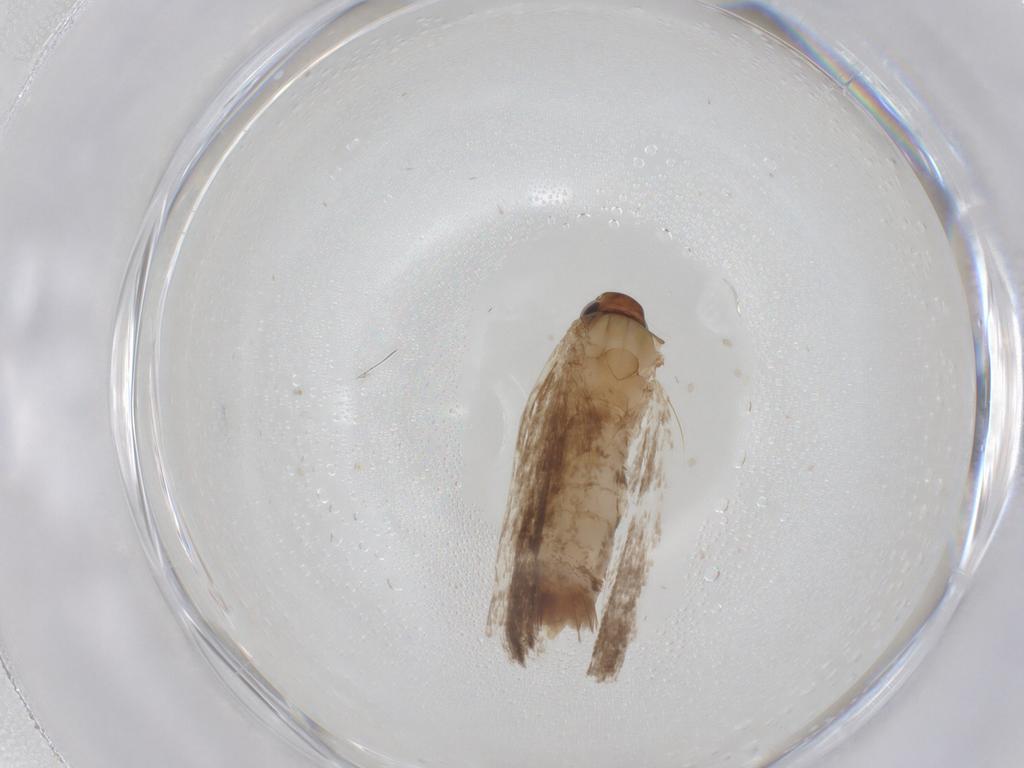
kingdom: Animalia
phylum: Arthropoda
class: Insecta
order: Lepidoptera
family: Gelechiidae
